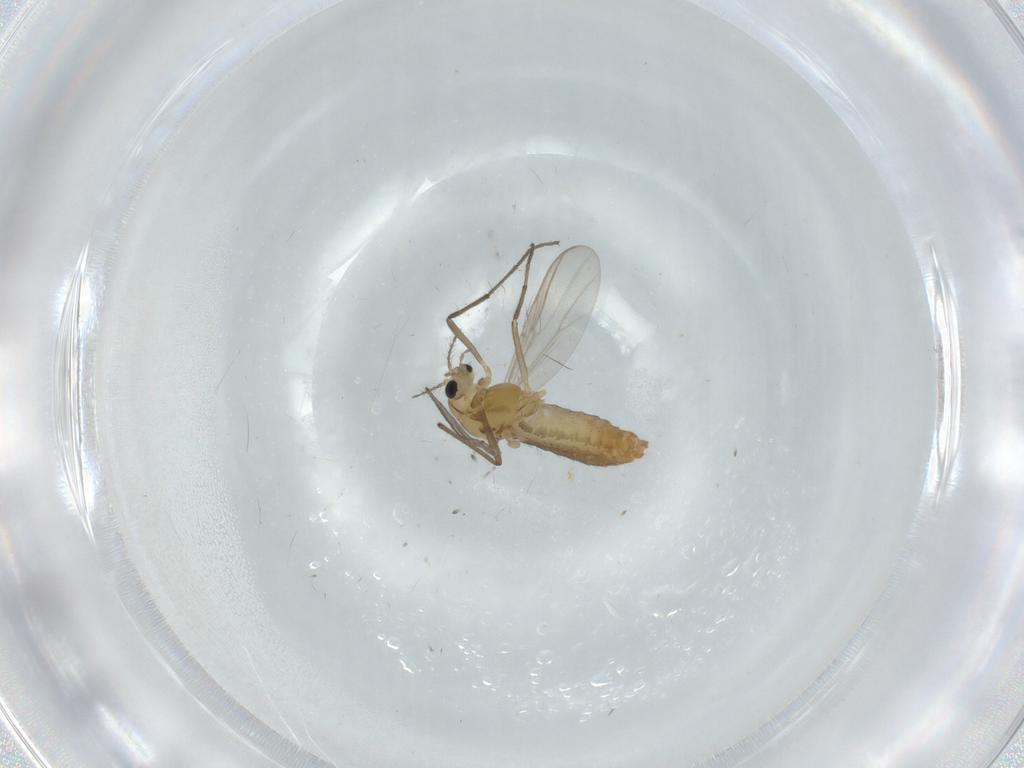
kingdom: Animalia
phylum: Arthropoda
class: Insecta
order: Diptera
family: Chironomidae
